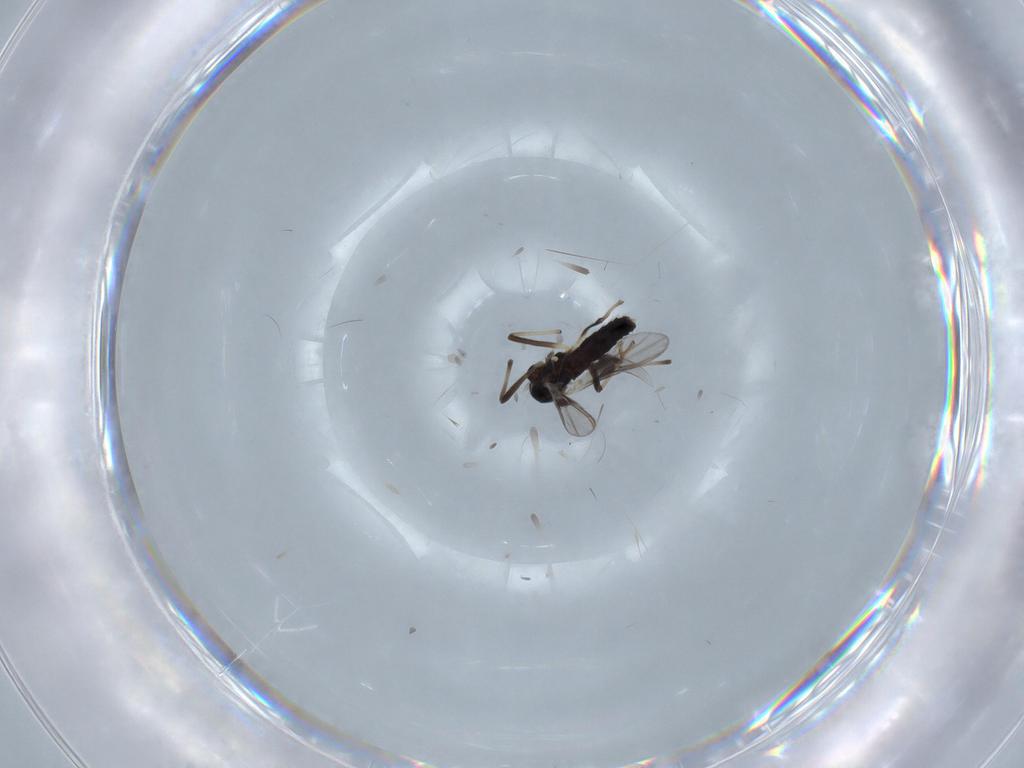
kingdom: Animalia
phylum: Arthropoda
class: Insecta
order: Diptera
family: Chironomidae
